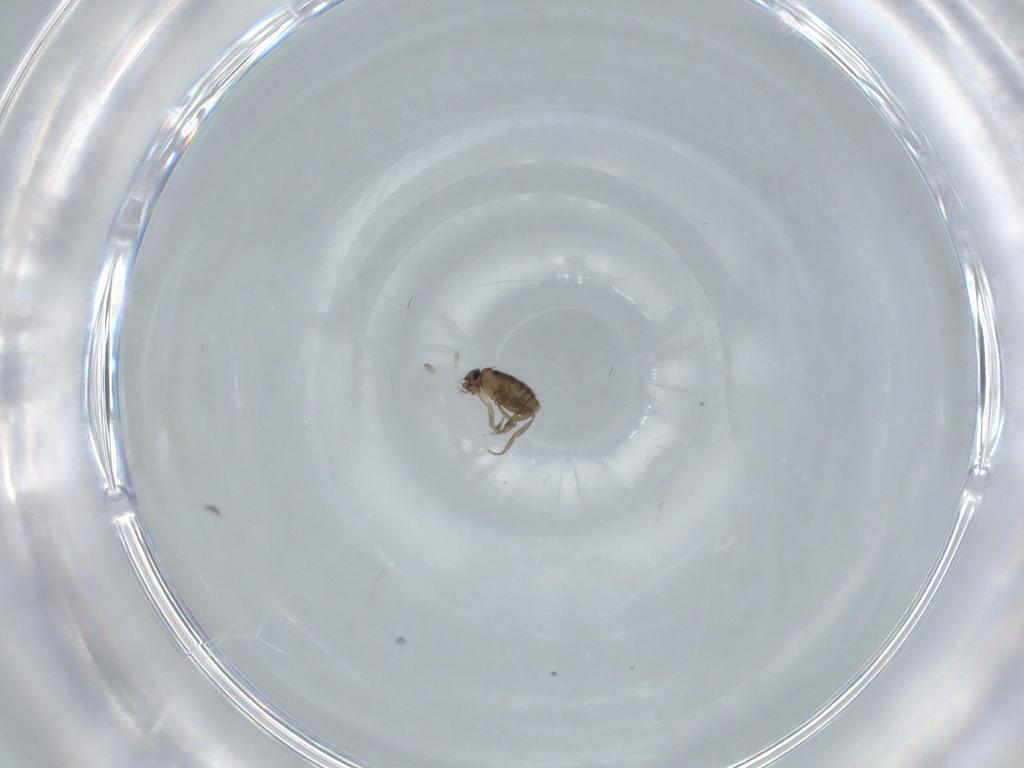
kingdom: Animalia
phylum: Arthropoda
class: Insecta
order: Diptera
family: Phoridae
